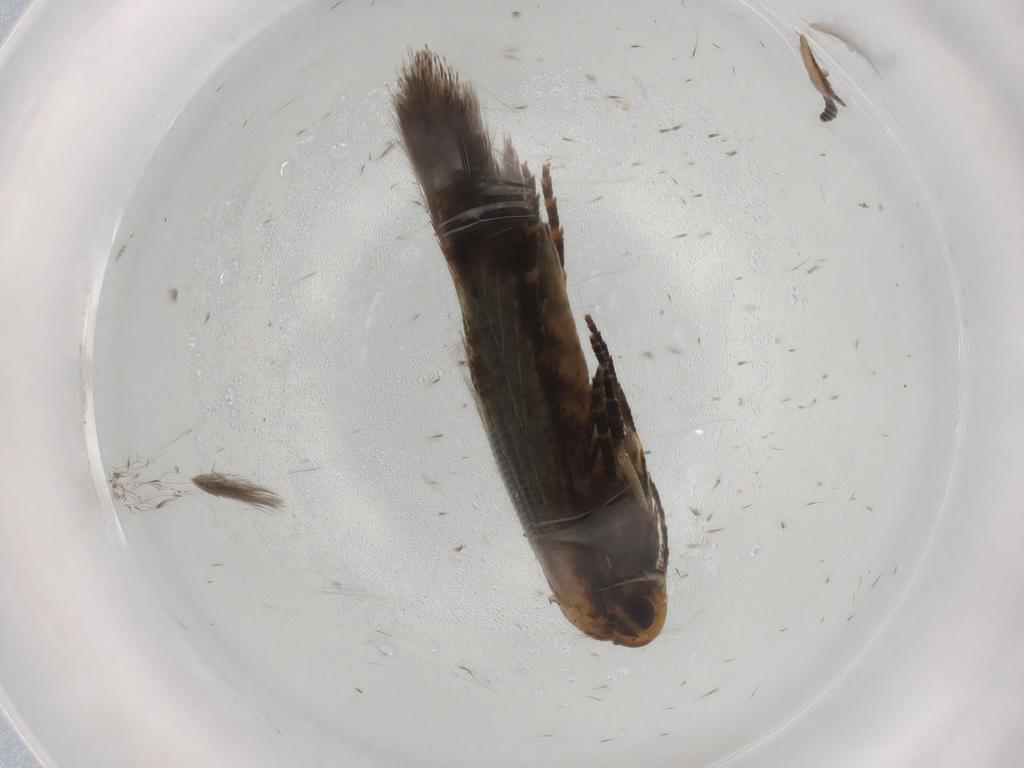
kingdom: Animalia
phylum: Arthropoda
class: Insecta
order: Lepidoptera
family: Cosmopterigidae
